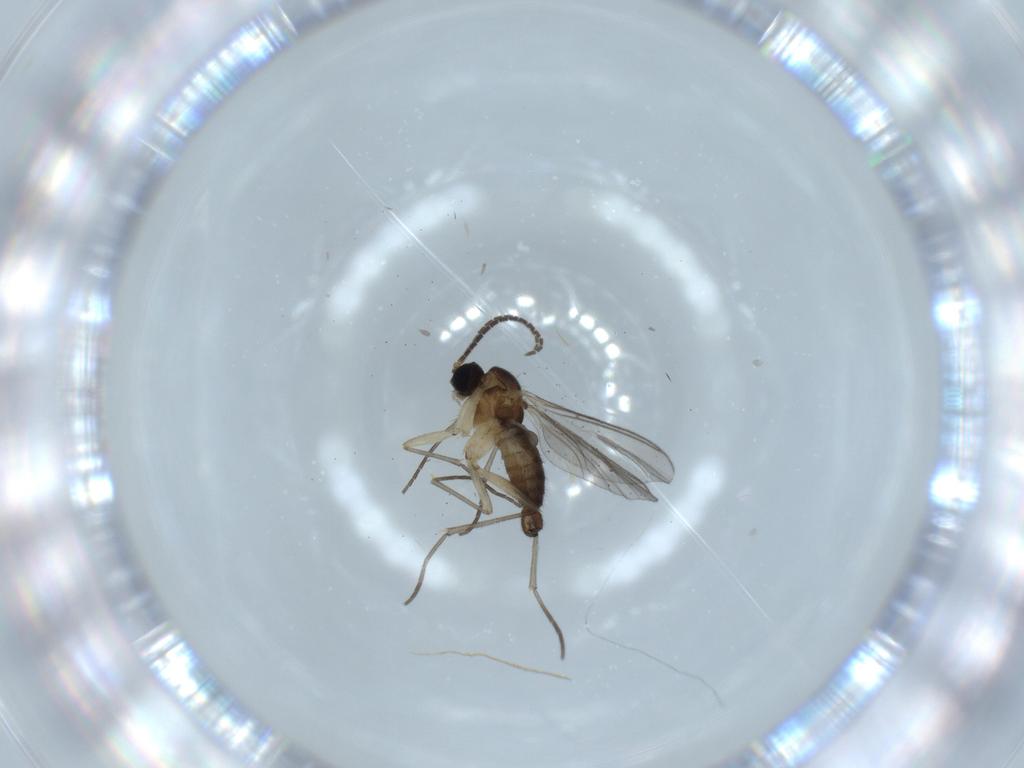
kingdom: Animalia
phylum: Arthropoda
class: Insecta
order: Diptera
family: Sciaridae
